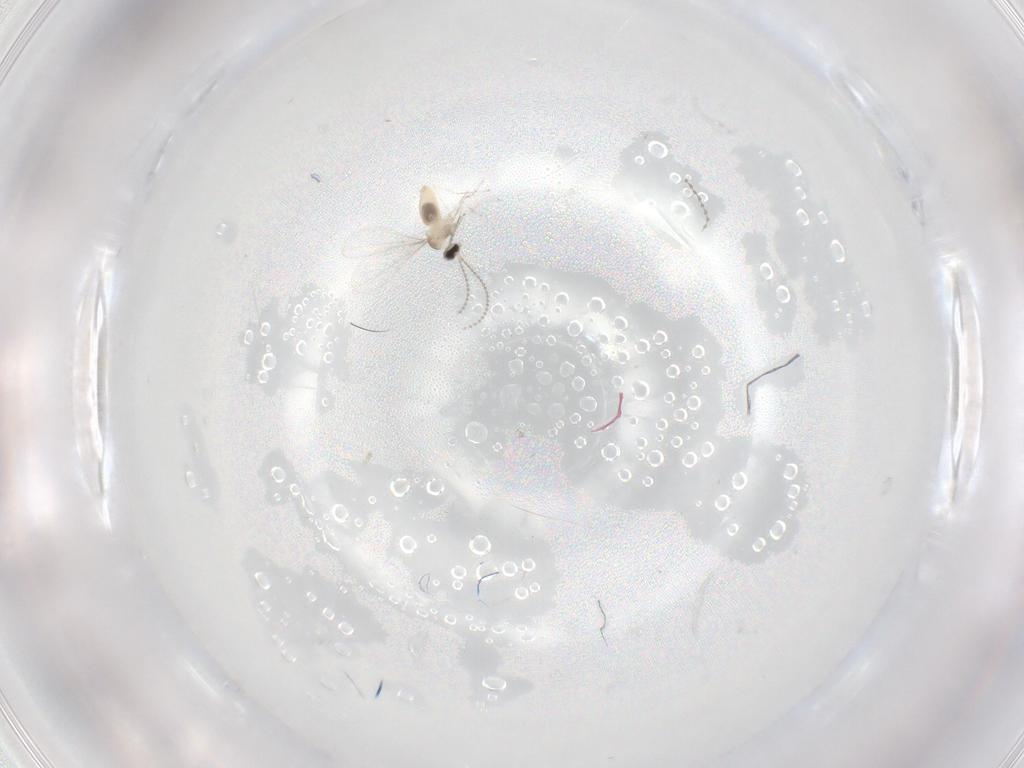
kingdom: Animalia
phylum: Arthropoda
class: Insecta
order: Diptera
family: Cecidomyiidae
